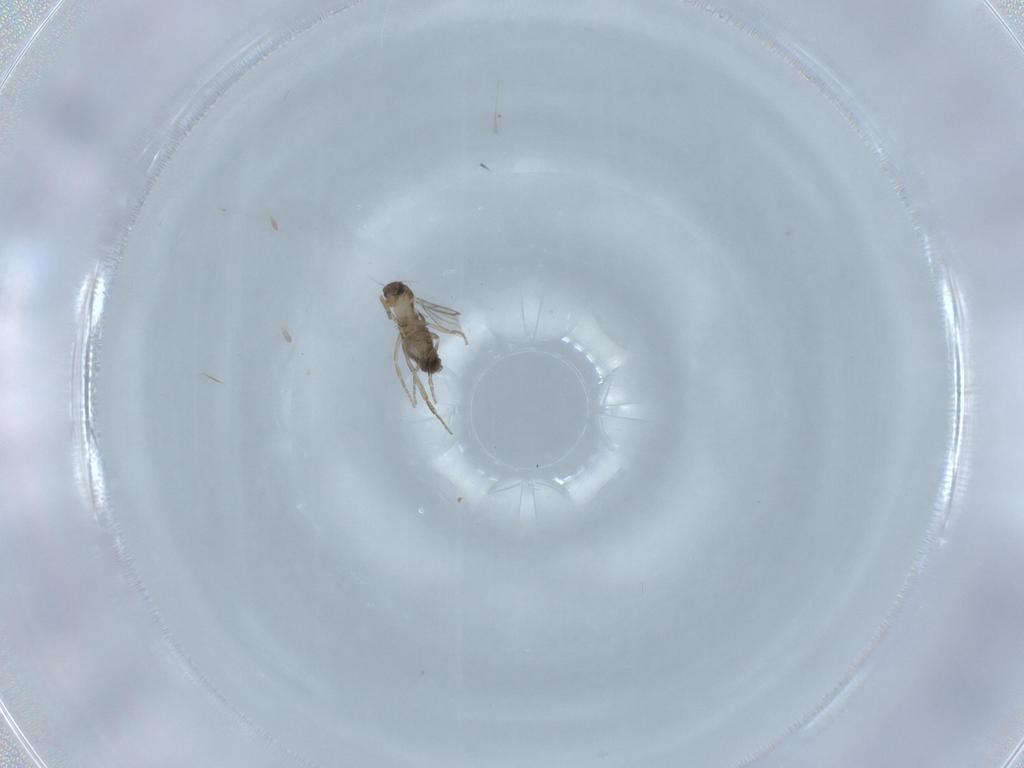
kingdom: Animalia
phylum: Arthropoda
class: Insecta
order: Diptera
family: Phoridae
